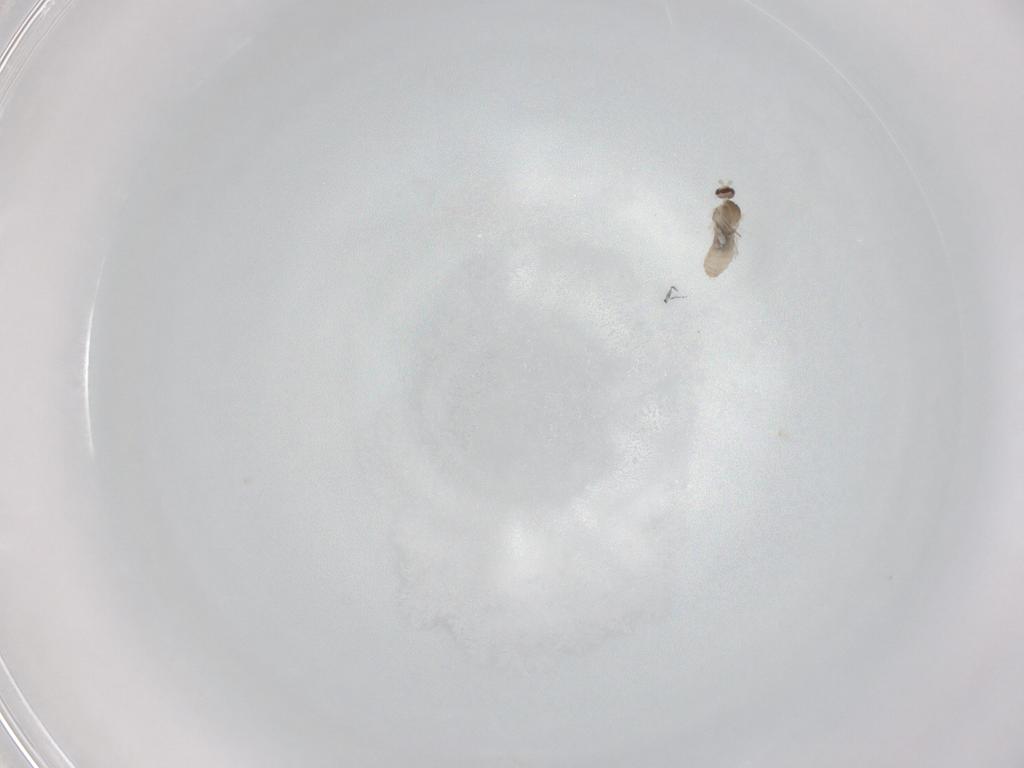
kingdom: Animalia
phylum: Arthropoda
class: Insecta
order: Diptera
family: Cecidomyiidae
